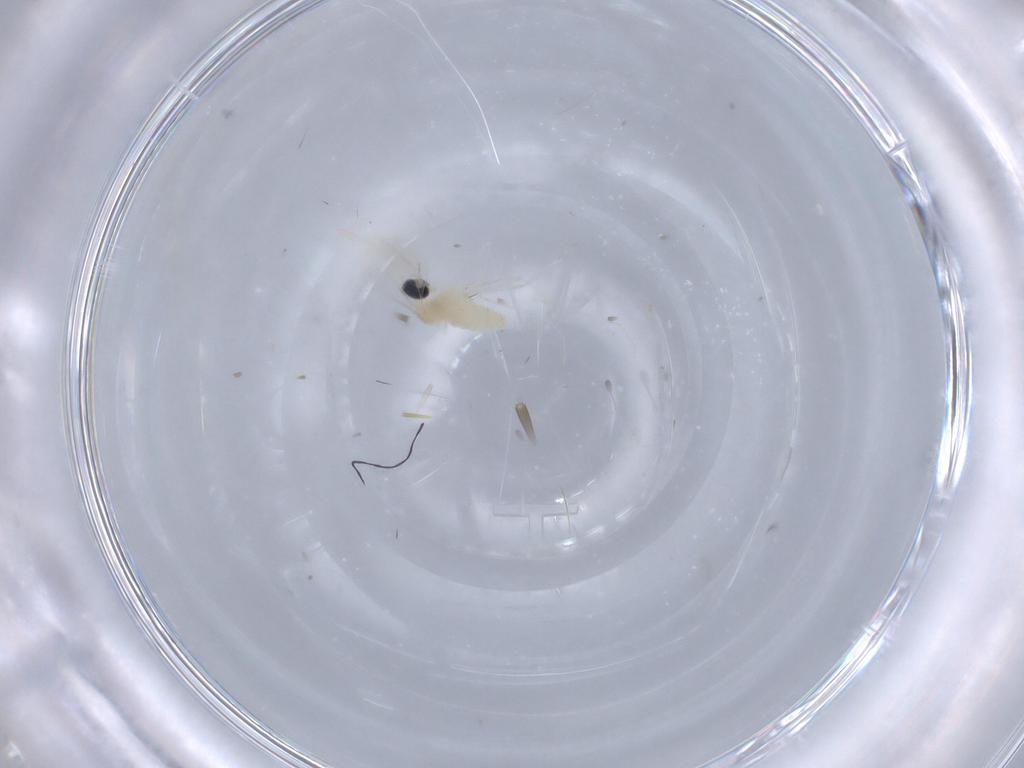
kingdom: Animalia
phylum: Arthropoda
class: Insecta
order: Diptera
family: Cecidomyiidae
